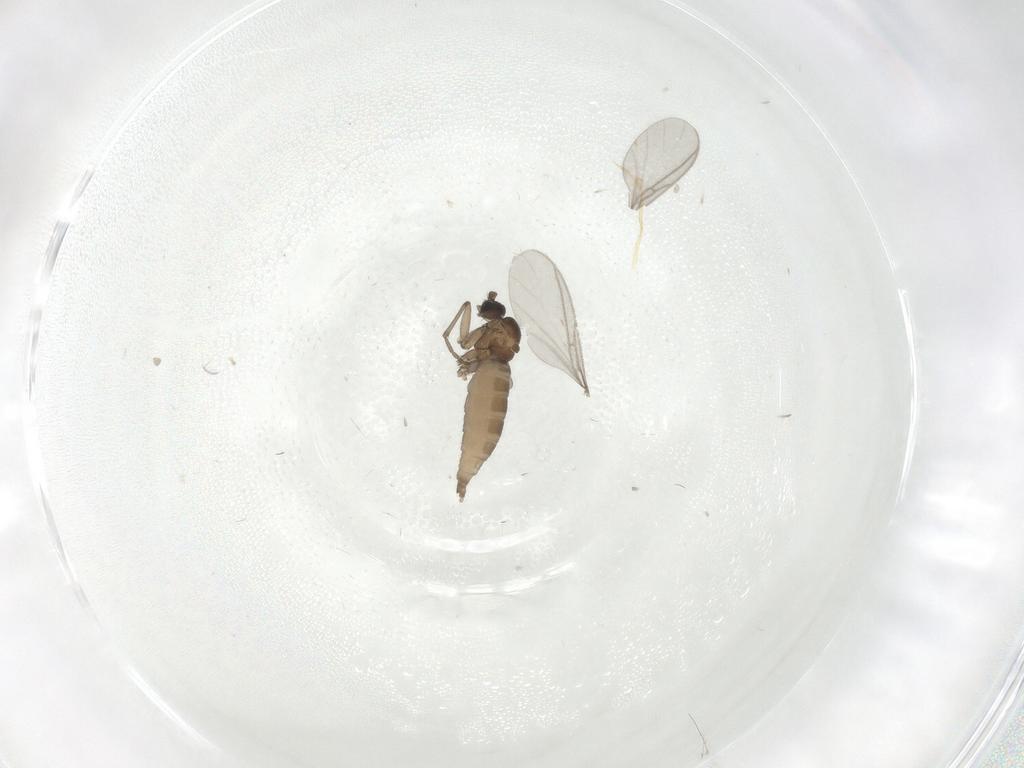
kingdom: Animalia
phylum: Arthropoda
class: Insecta
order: Diptera
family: Sciaridae
